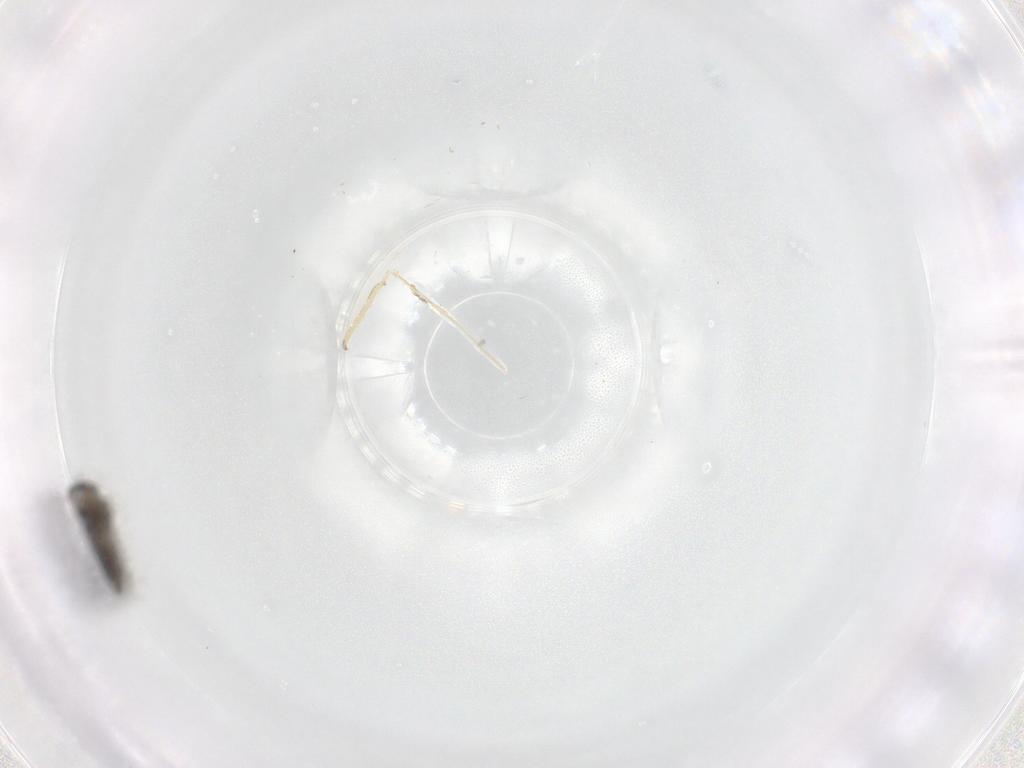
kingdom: Animalia
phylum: Arthropoda
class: Insecta
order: Diptera
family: Chironomidae
